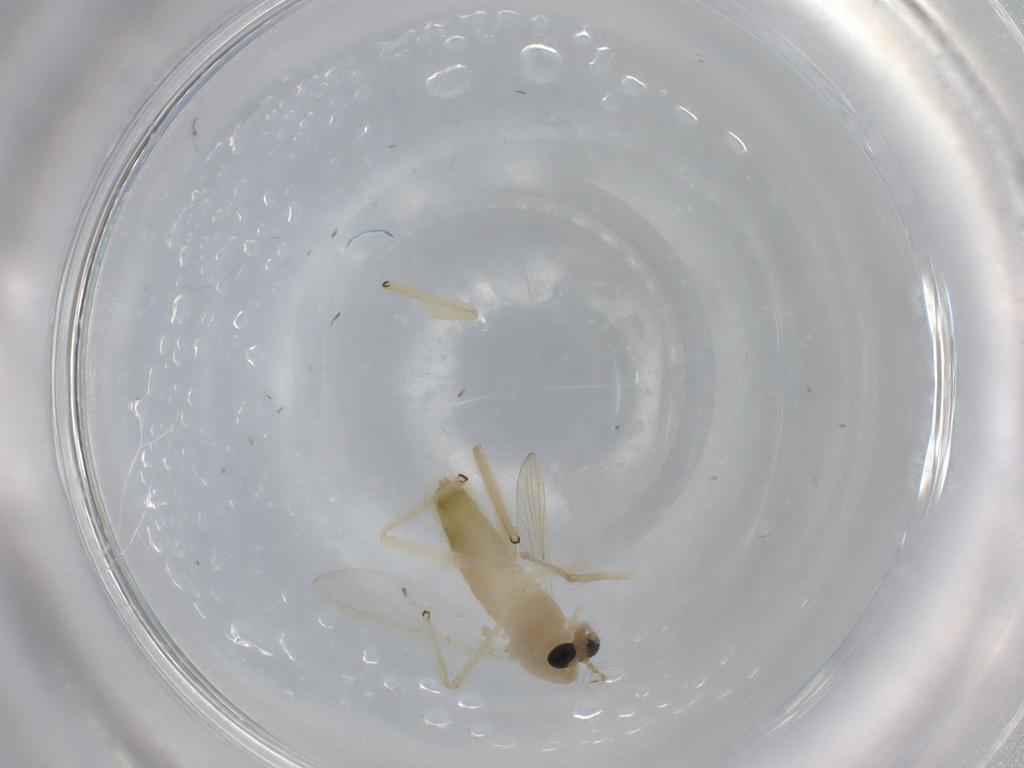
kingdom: Animalia
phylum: Arthropoda
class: Insecta
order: Diptera
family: Chironomidae
